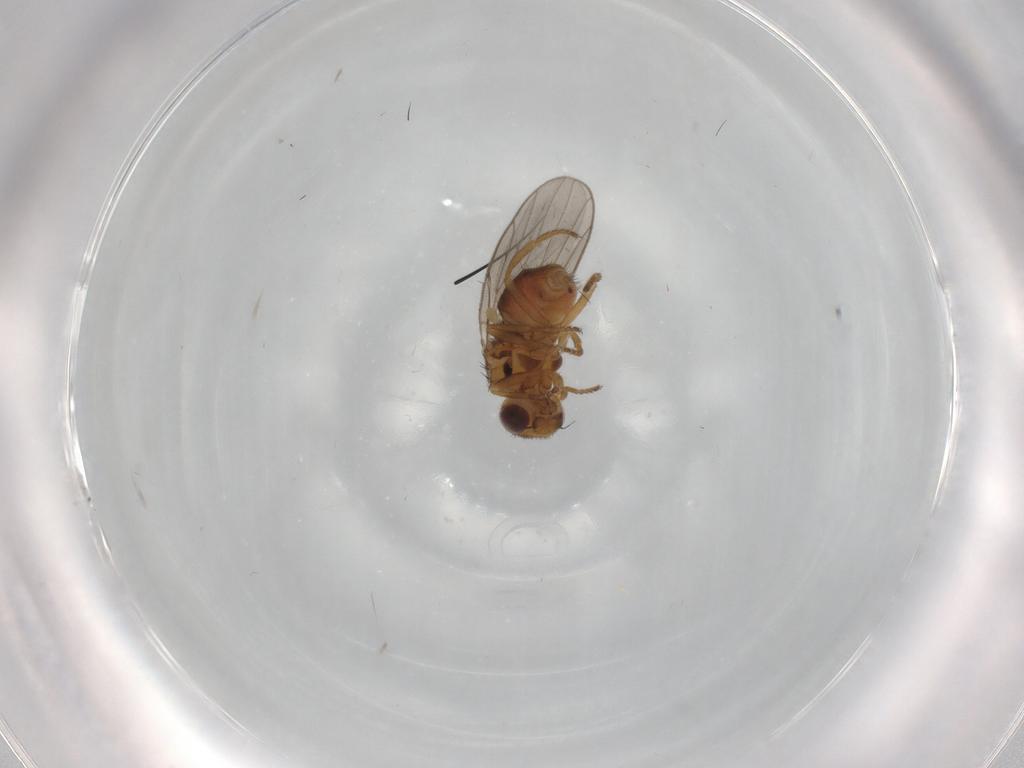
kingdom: Animalia
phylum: Arthropoda
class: Insecta
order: Diptera
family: Chloropidae
